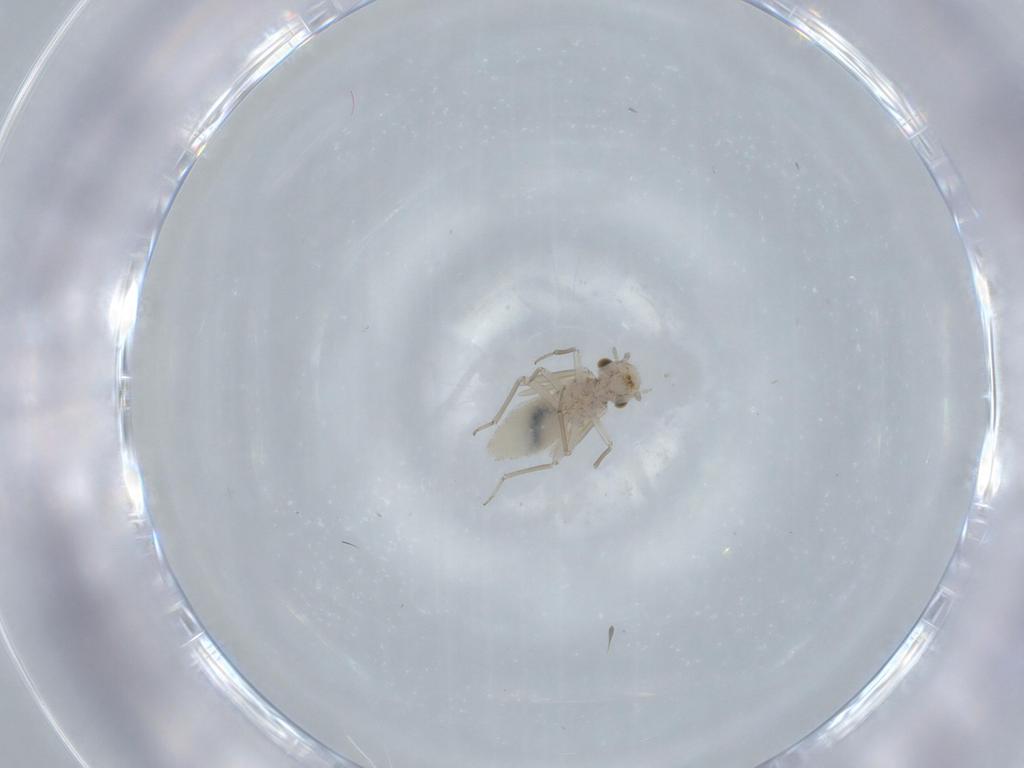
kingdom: Animalia
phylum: Arthropoda
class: Insecta
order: Psocodea
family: Lachesillidae
